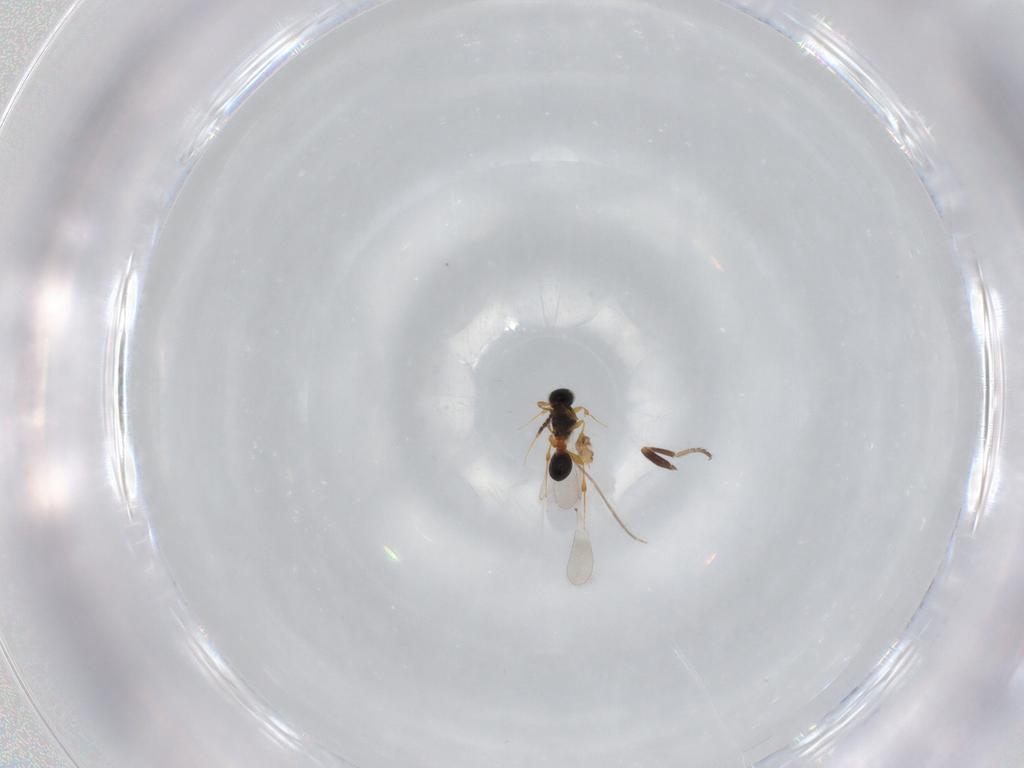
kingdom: Animalia
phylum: Arthropoda
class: Insecta
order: Hymenoptera
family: Platygastridae
